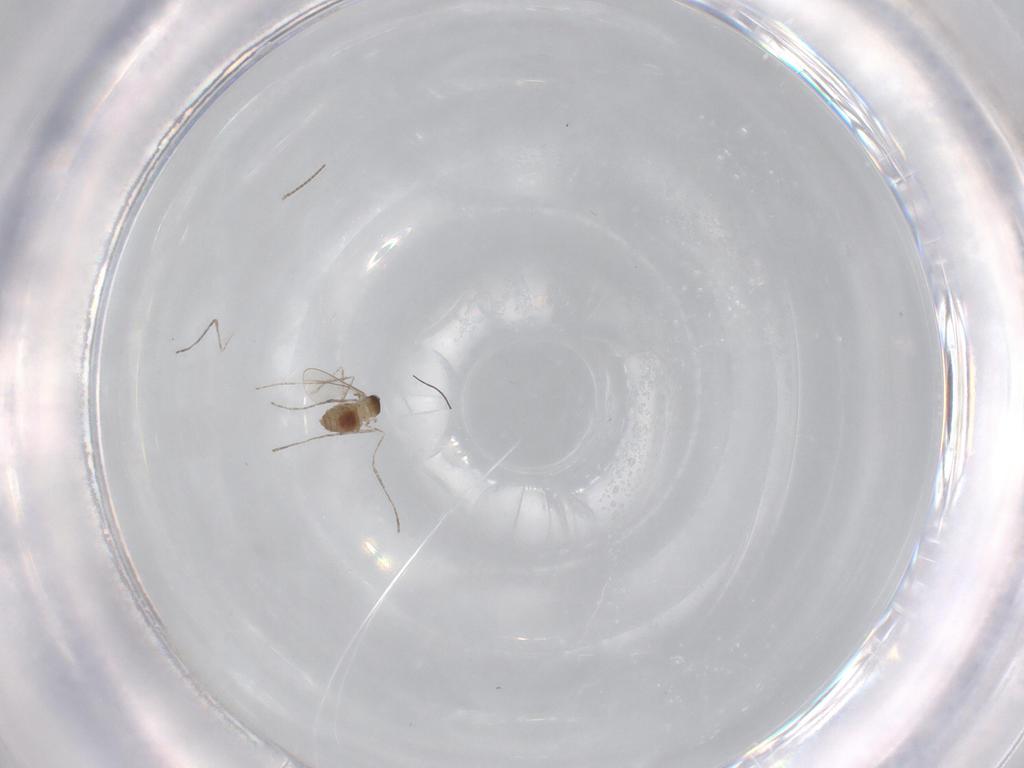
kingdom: Animalia
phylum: Arthropoda
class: Insecta
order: Diptera
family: Cecidomyiidae
